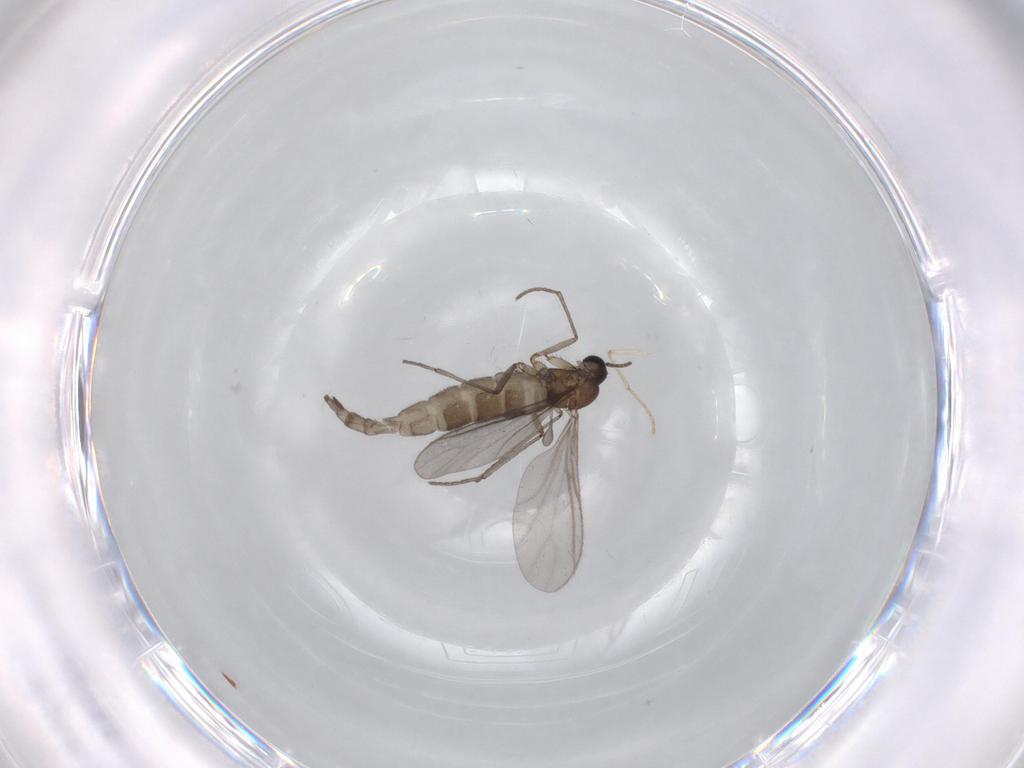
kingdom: Animalia
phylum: Arthropoda
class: Insecta
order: Diptera
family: Psychodidae
